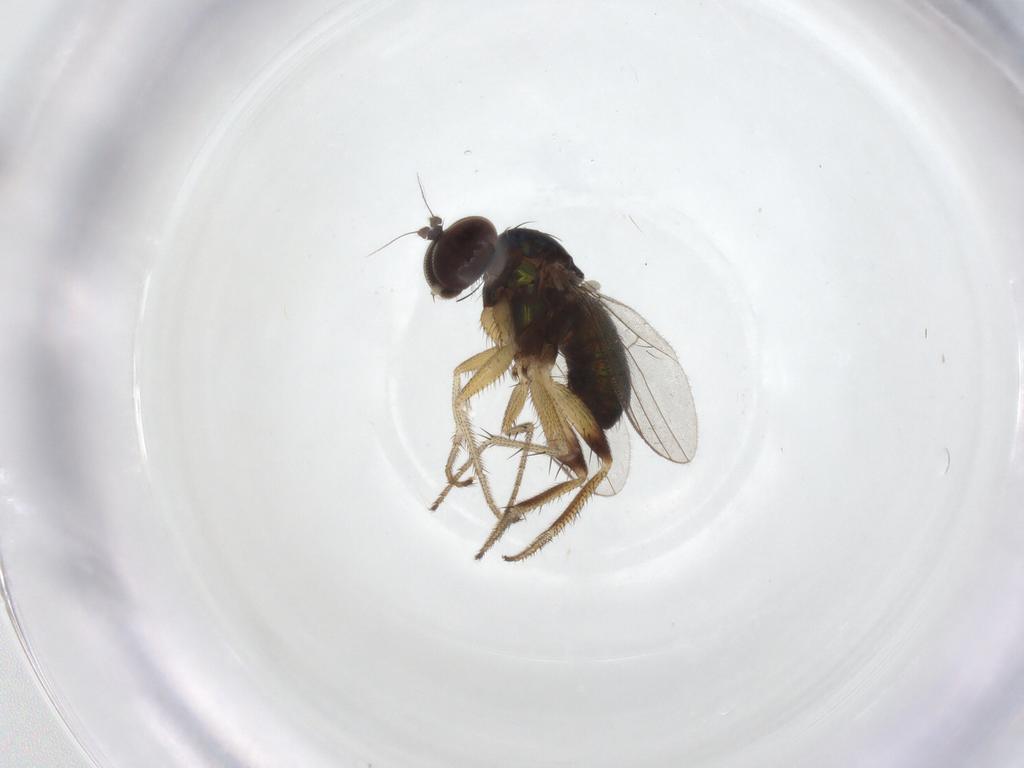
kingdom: Animalia
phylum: Arthropoda
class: Insecta
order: Diptera
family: Dolichopodidae
